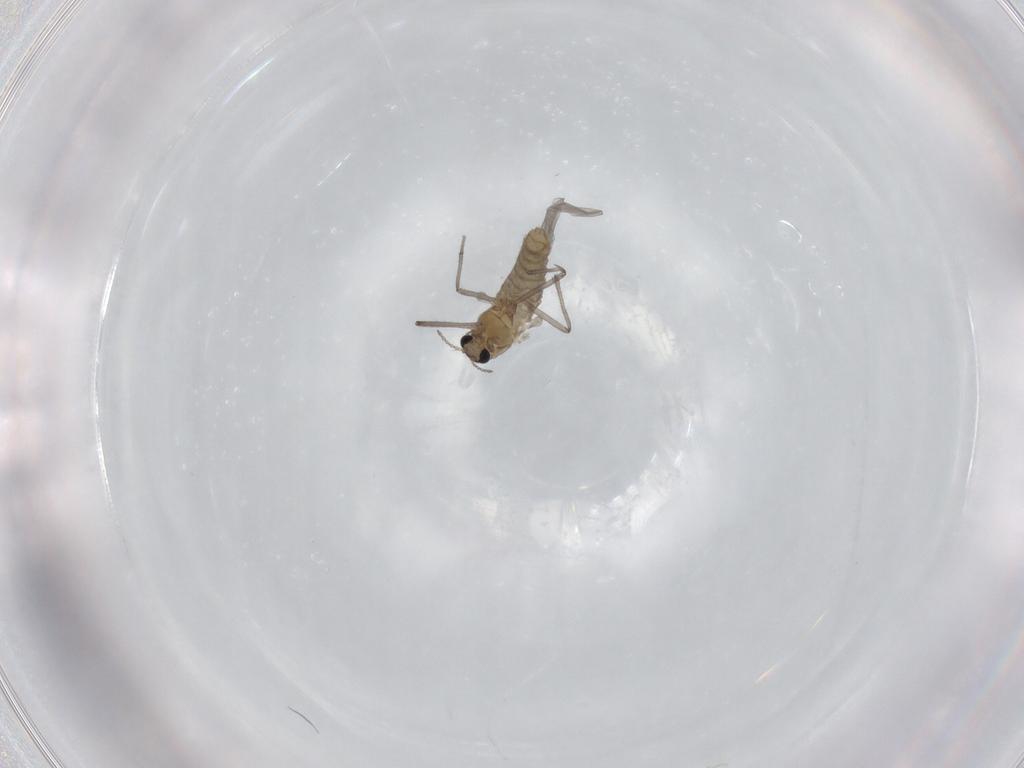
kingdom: Animalia
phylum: Arthropoda
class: Insecta
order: Diptera
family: Chironomidae
